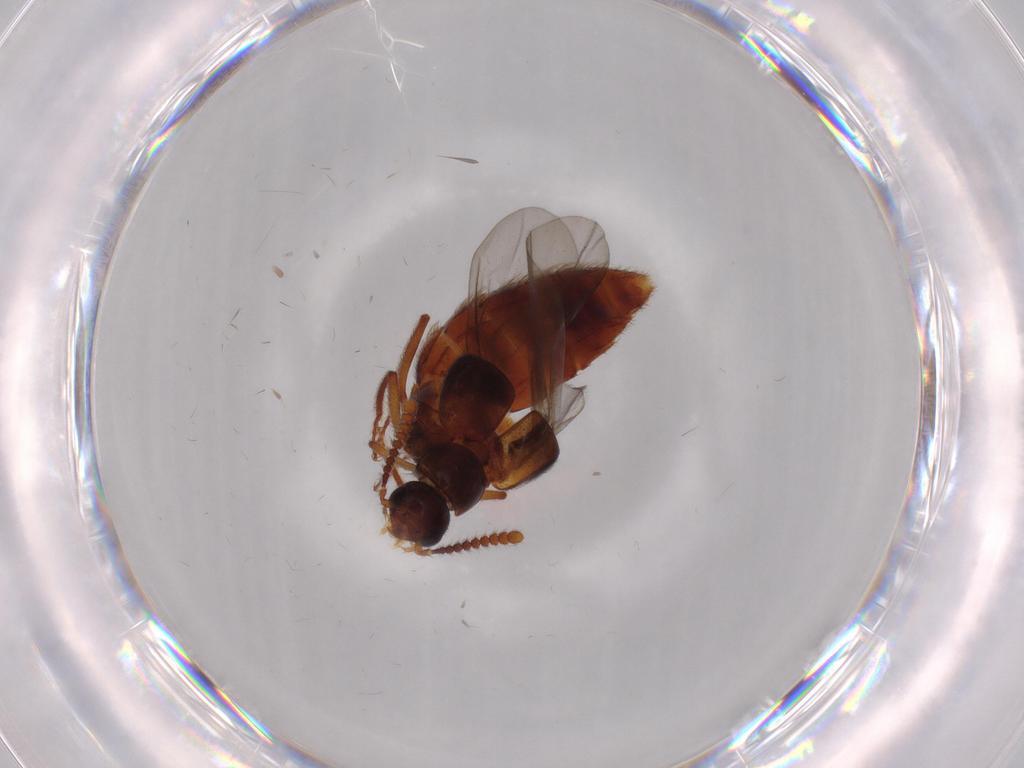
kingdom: Animalia
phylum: Arthropoda
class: Insecta
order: Coleoptera
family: Staphylinidae
